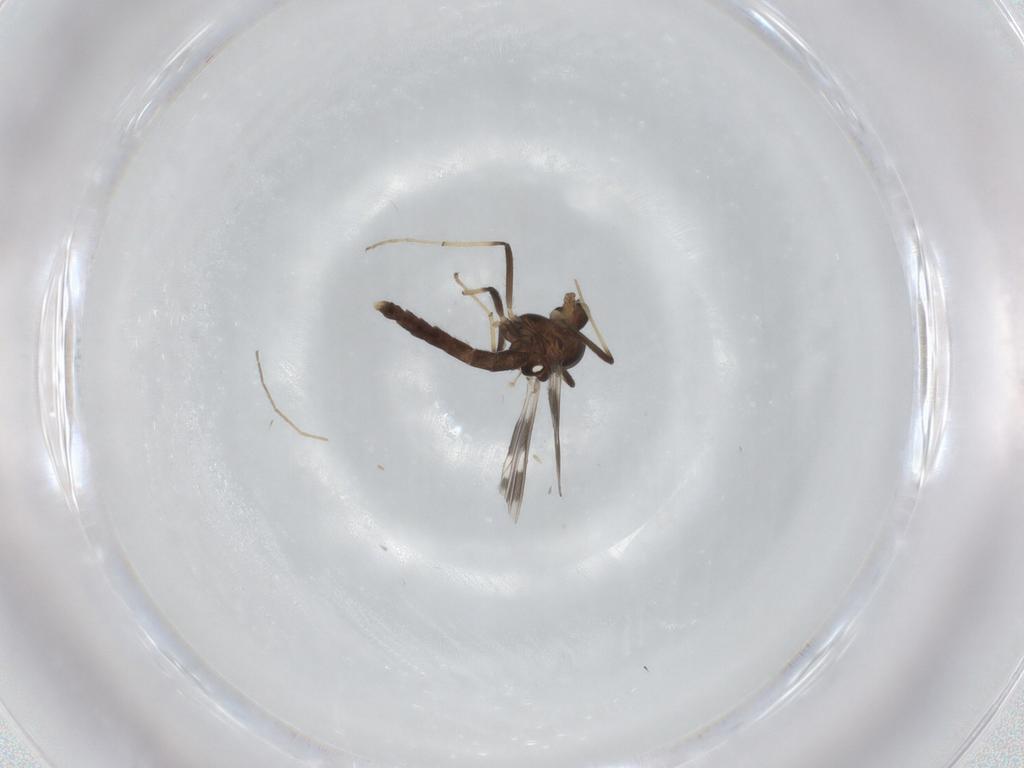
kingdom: Animalia
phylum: Arthropoda
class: Insecta
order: Diptera
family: Chironomidae
